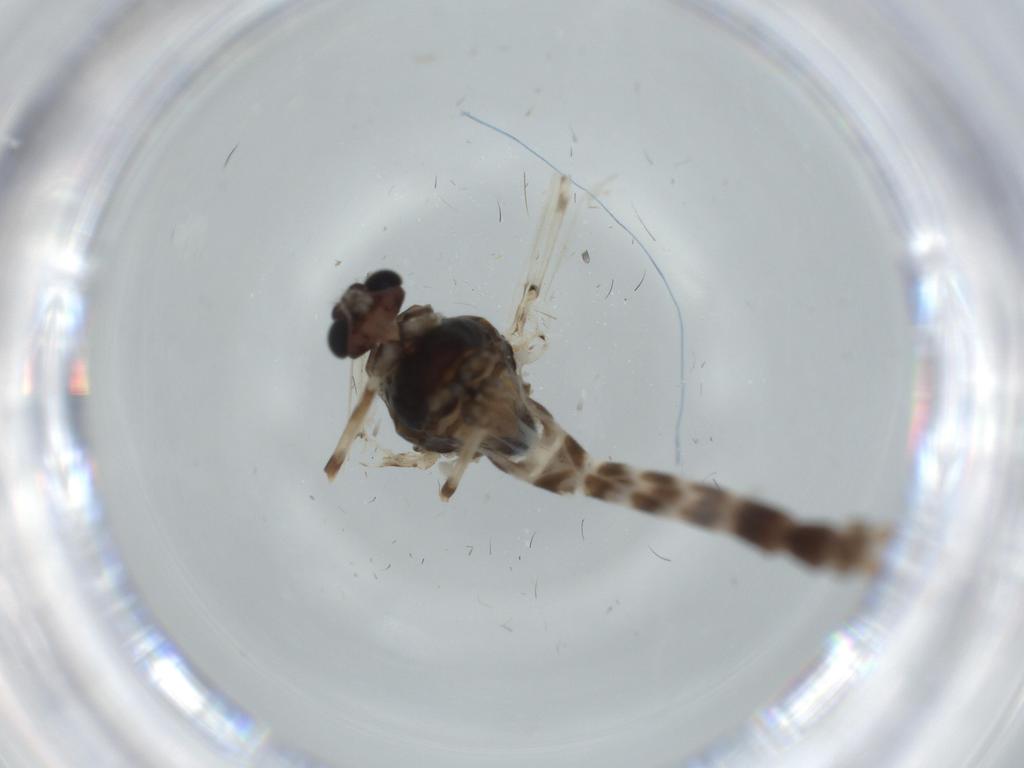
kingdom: Animalia
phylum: Arthropoda
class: Insecta
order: Diptera
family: Chironomidae
